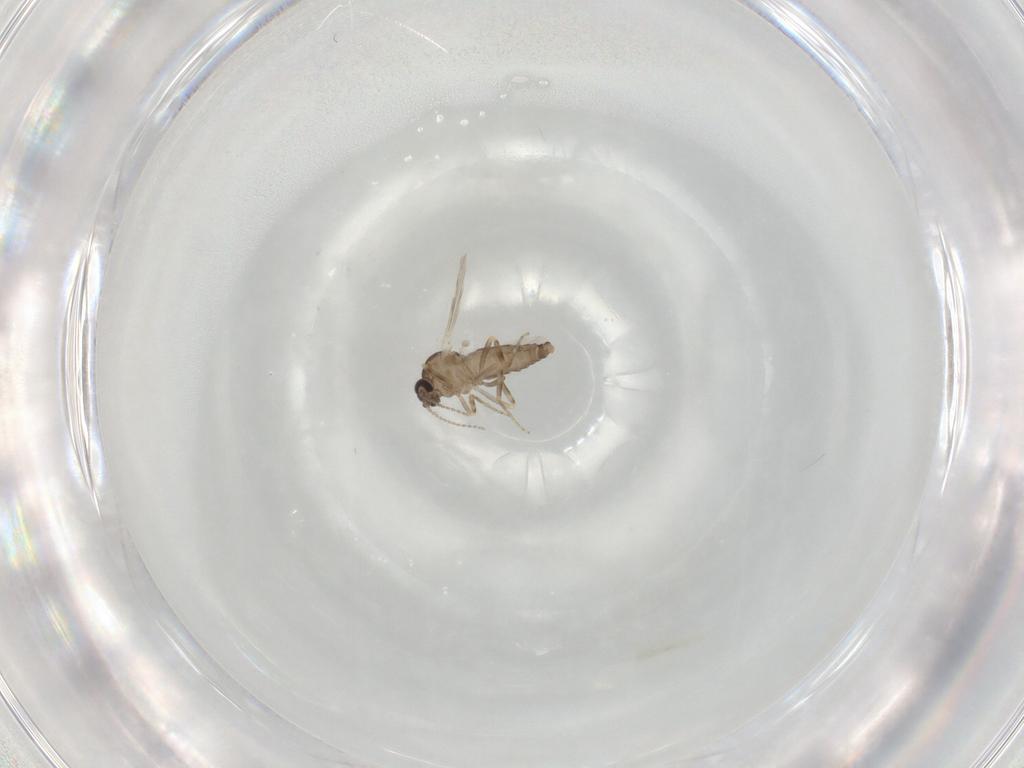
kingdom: Animalia
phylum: Arthropoda
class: Insecta
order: Diptera
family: Ceratopogonidae
